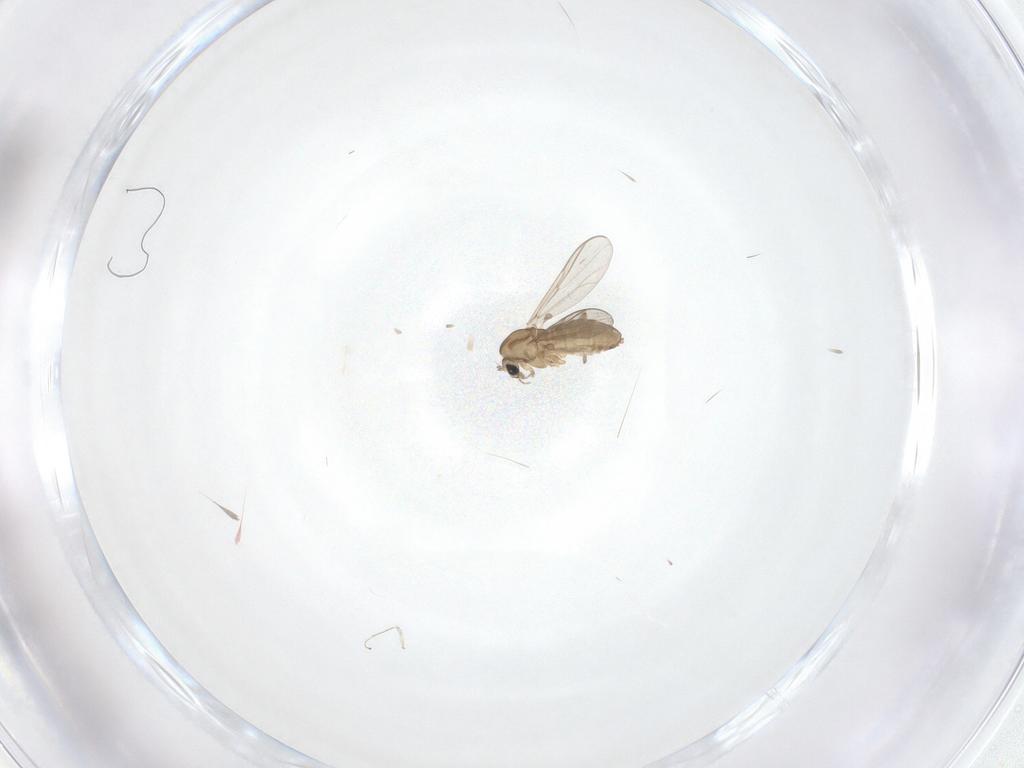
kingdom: Animalia
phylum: Arthropoda
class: Insecta
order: Diptera
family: Chironomidae
